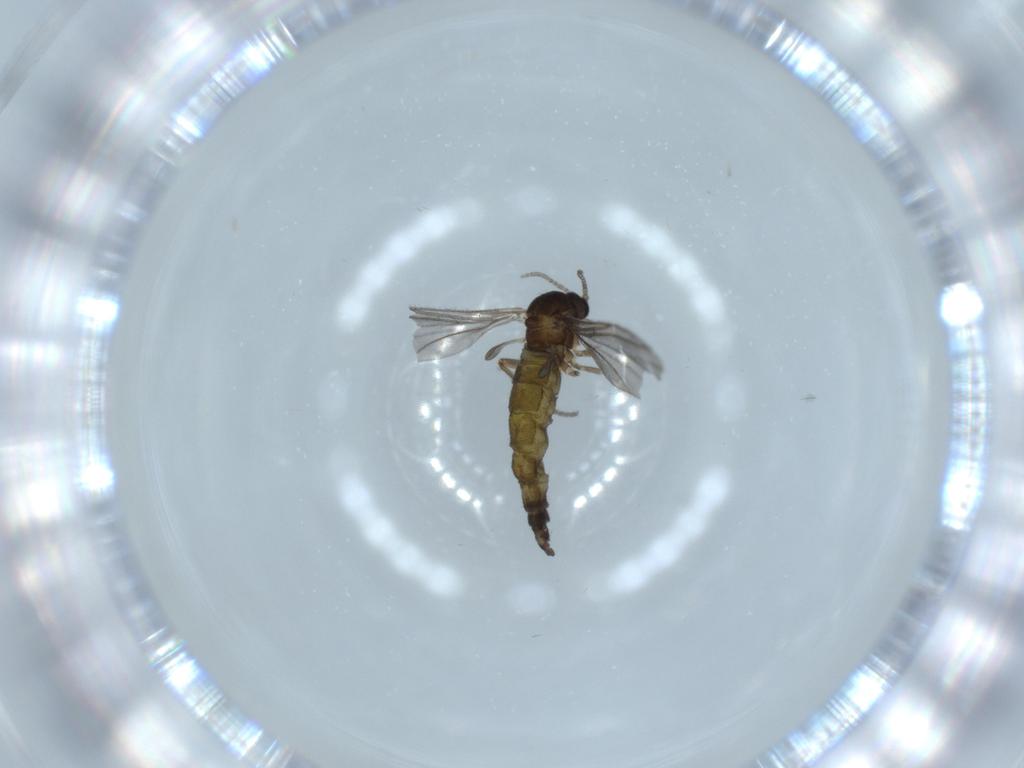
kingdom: Animalia
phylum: Arthropoda
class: Insecta
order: Diptera
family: Sciaridae
